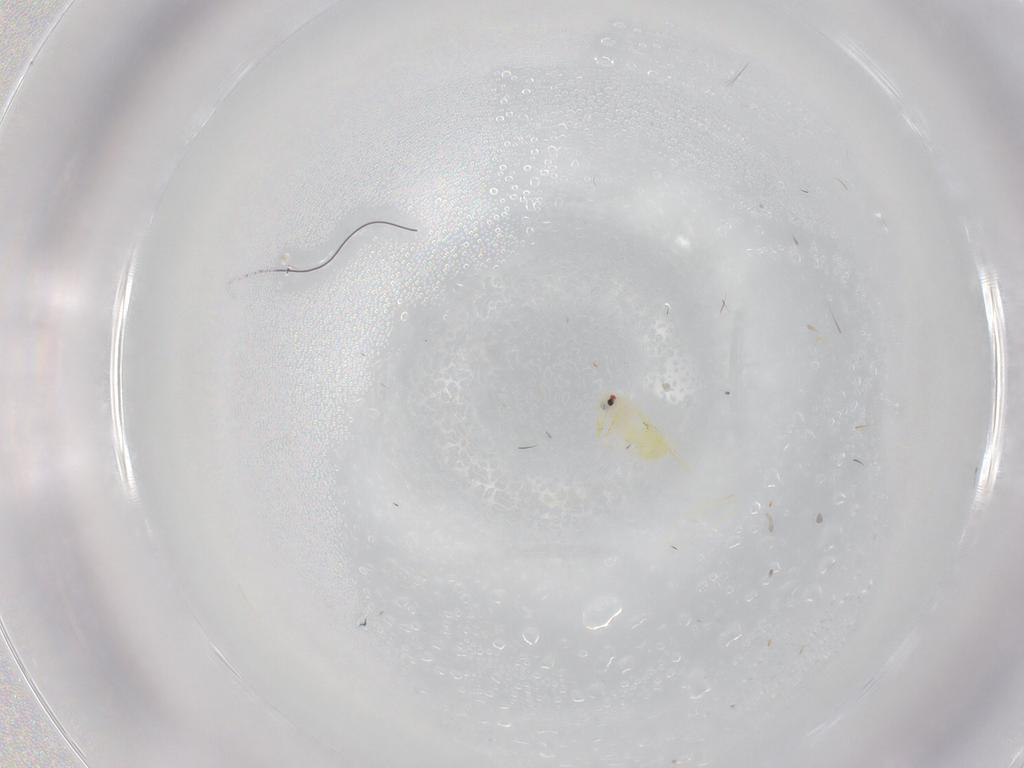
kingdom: Animalia
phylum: Arthropoda
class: Insecta
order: Hemiptera
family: Aleyrodidae
